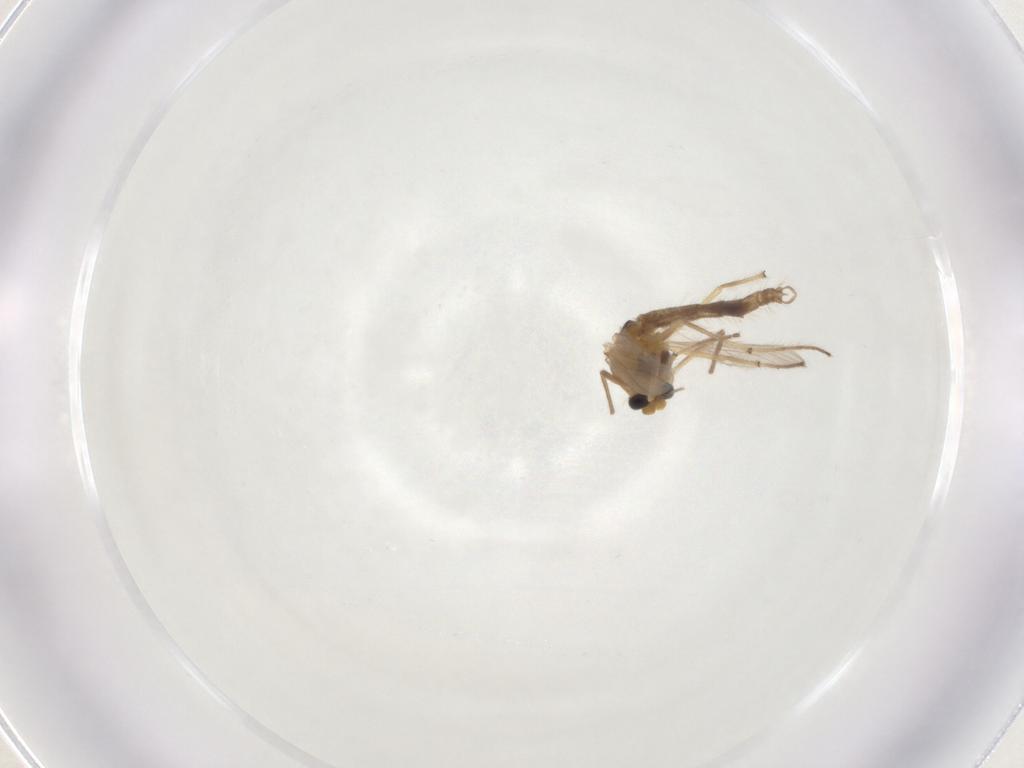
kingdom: Animalia
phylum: Arthropoda
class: Insecta
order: Diptera
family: Chironomidae
